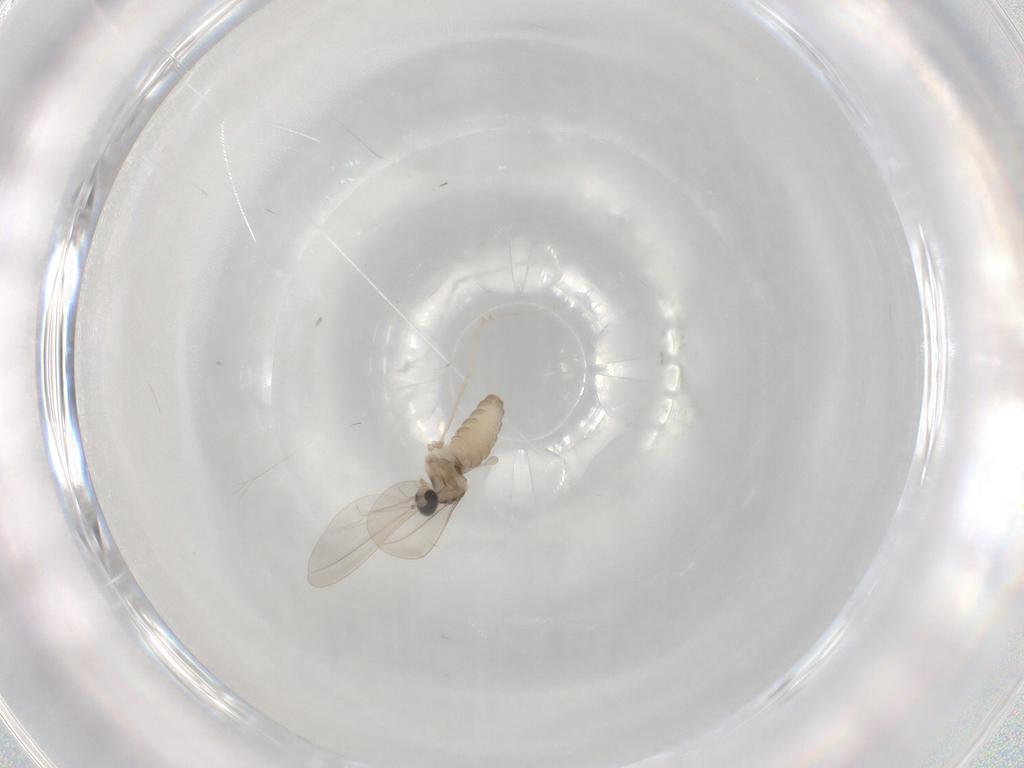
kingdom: Animalia
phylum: Arthropoda
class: Insecta
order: Diptera
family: Cecidomyiidae
